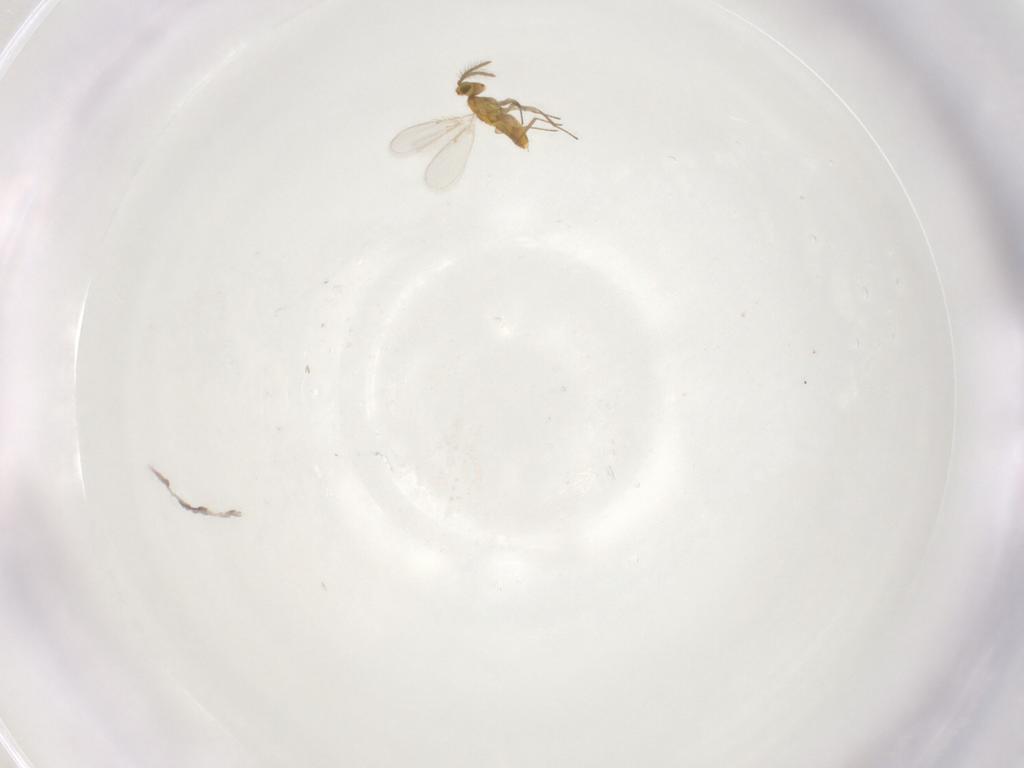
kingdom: Animalia
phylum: Arthropoda
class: Insecta
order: Hymenoptera
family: Aphelinidae
